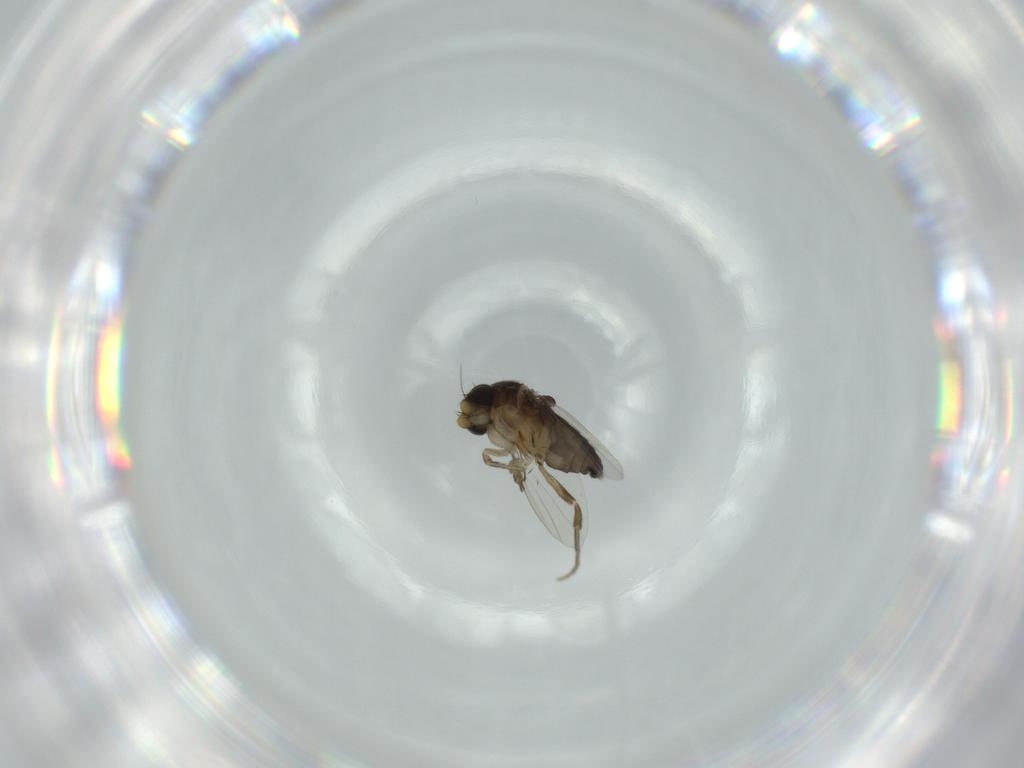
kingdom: Animalia
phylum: Arthropoda
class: Insecta
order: Diptera
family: Phoridae
